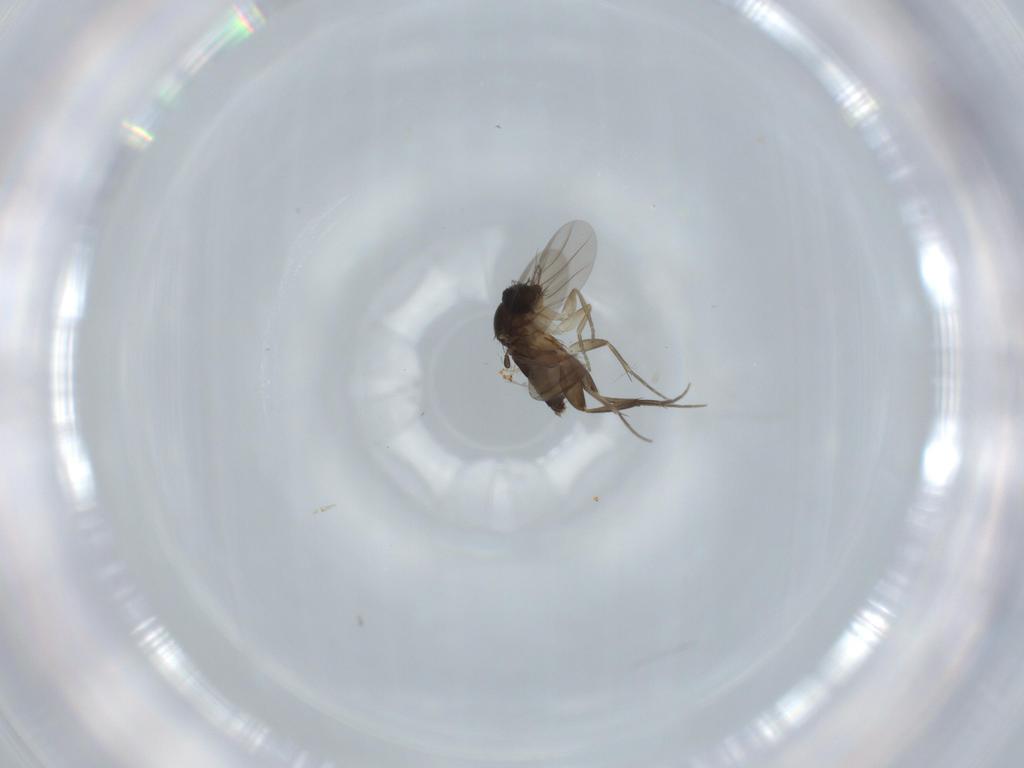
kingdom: Animalia
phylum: Arthropoda
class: Insecta
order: Diptera
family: Phoridae
